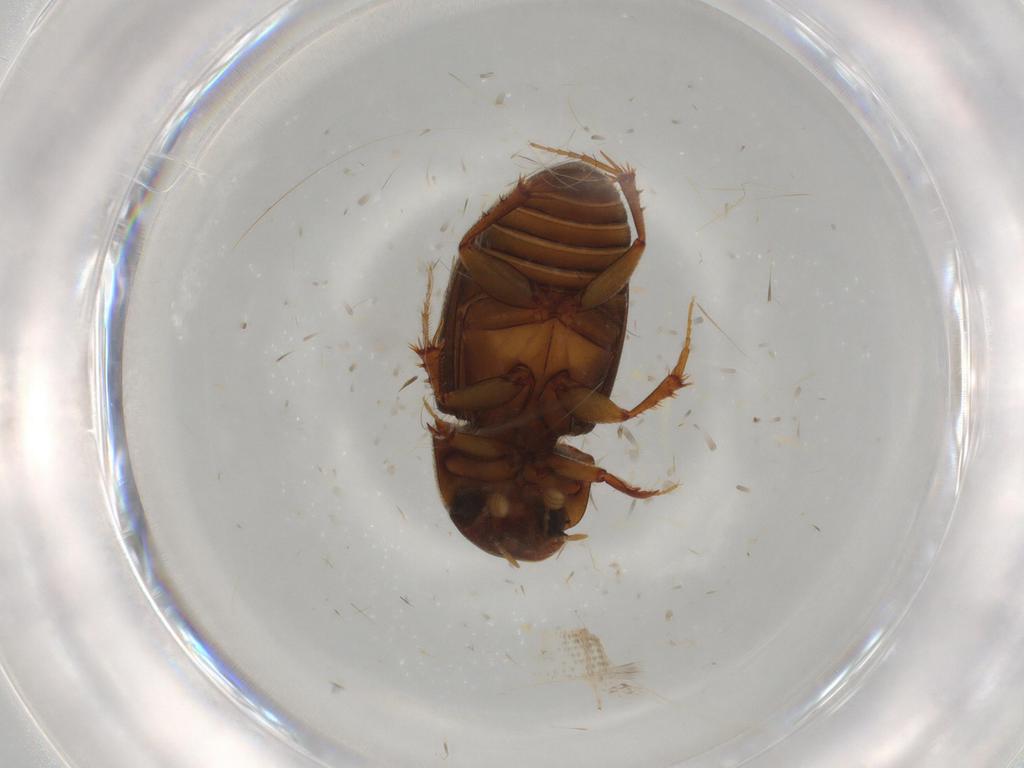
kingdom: Animalia
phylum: Arthropoda
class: Insecta
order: Coleoptera
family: Scarabaeidae
